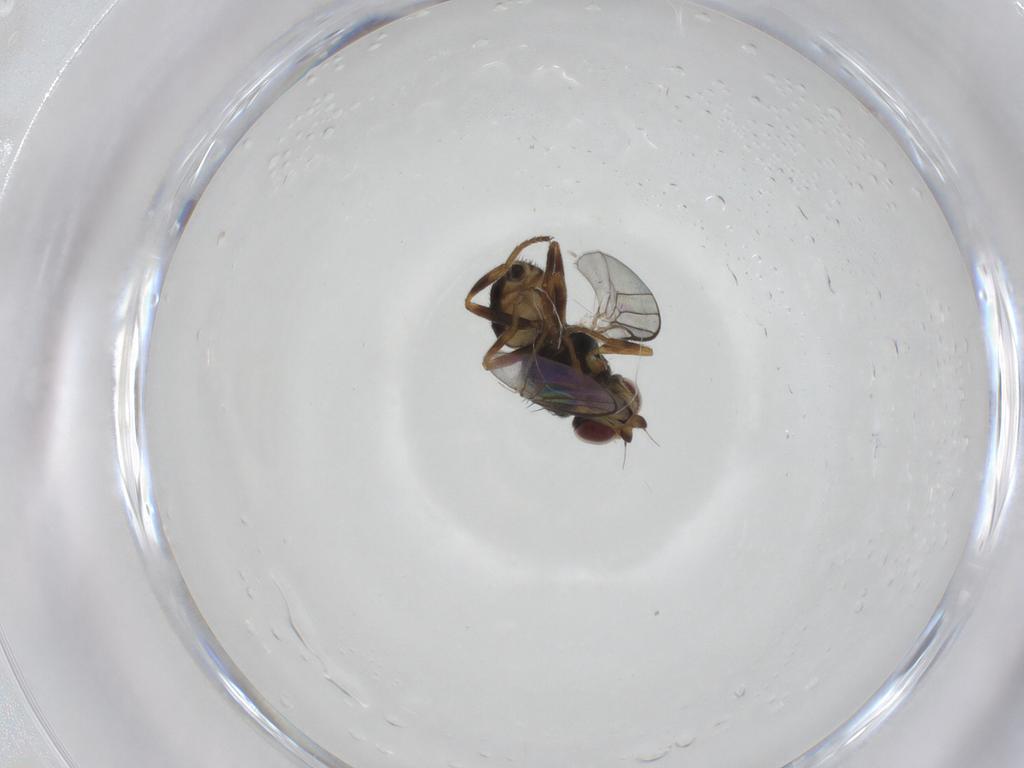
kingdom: Animalia
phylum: Arthropoda
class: Insecta
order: Diptera
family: Chloropidae
